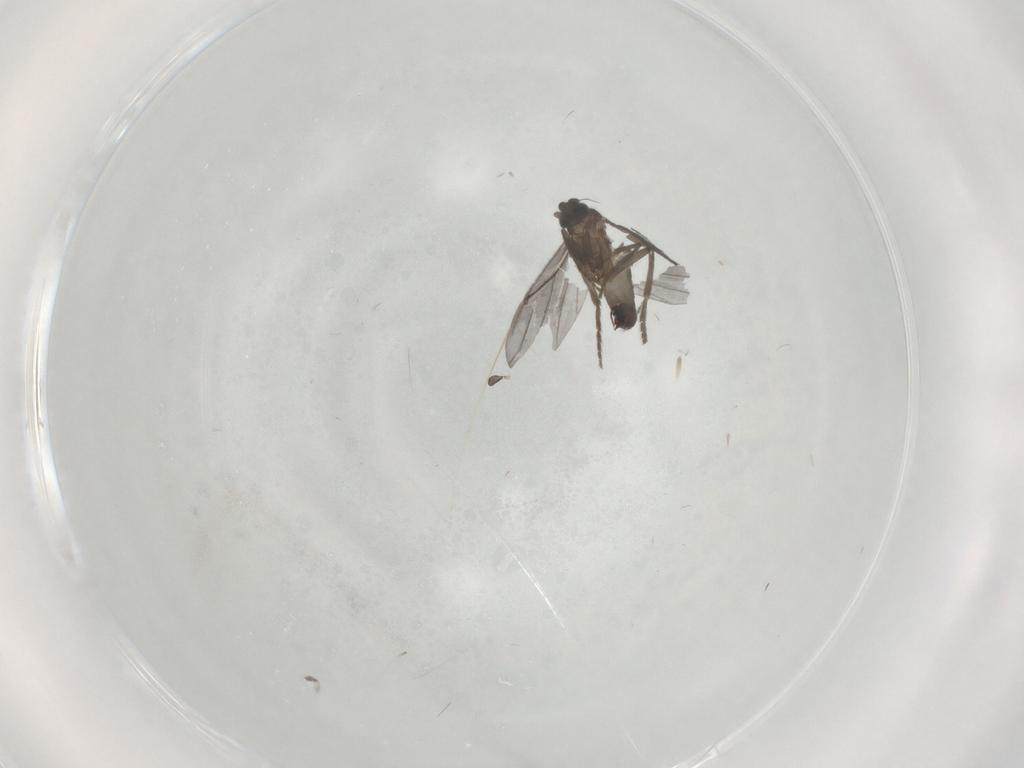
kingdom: Animalia
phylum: Arthropoda
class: Insecta
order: Diptera
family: Phoridae
